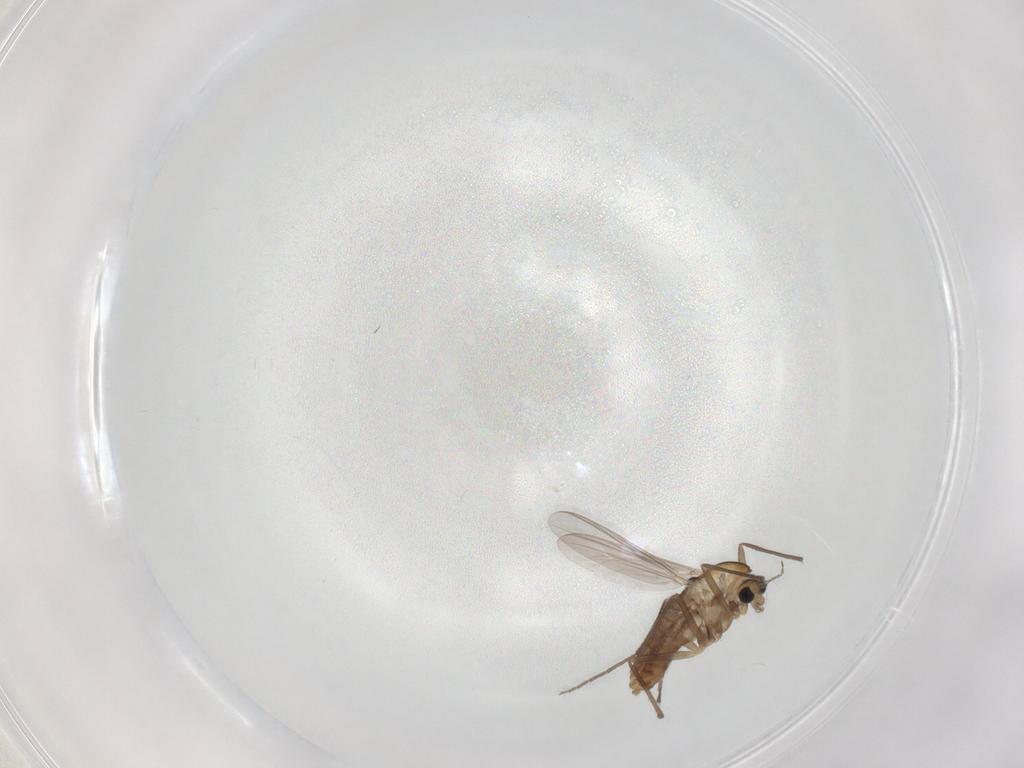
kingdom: Animalia
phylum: Arthropoda
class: Insecta
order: Diptera
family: Chironomidae
